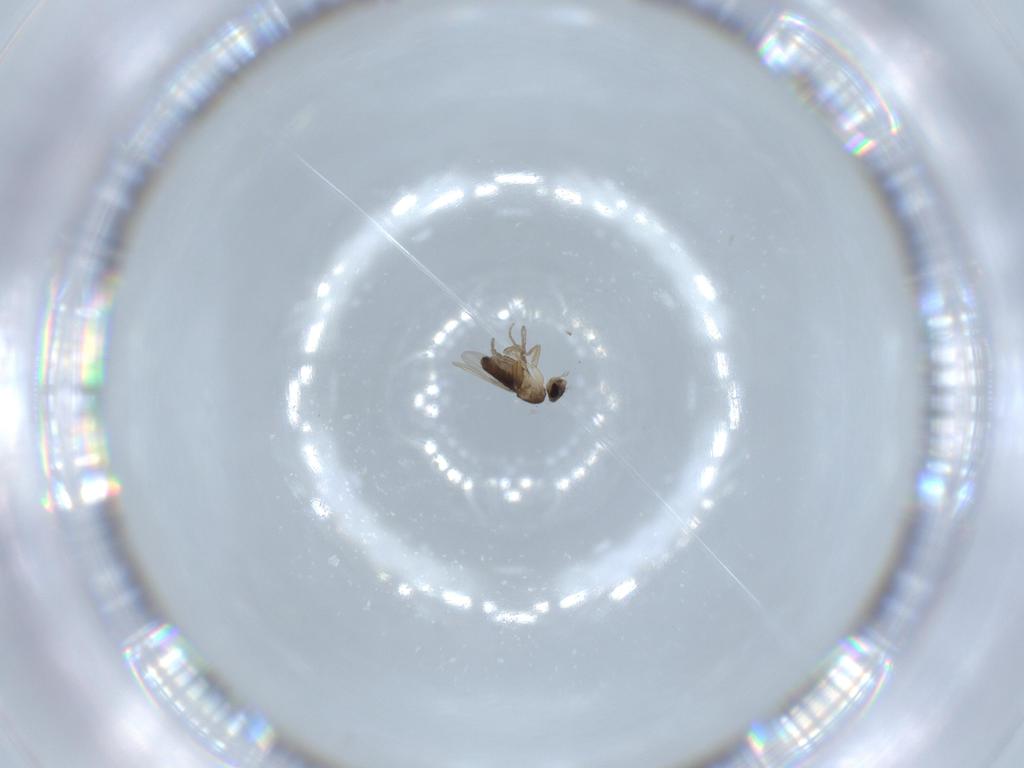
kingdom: Animalia
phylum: Arthropoda
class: Insecta
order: Diptera
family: Phoridae
